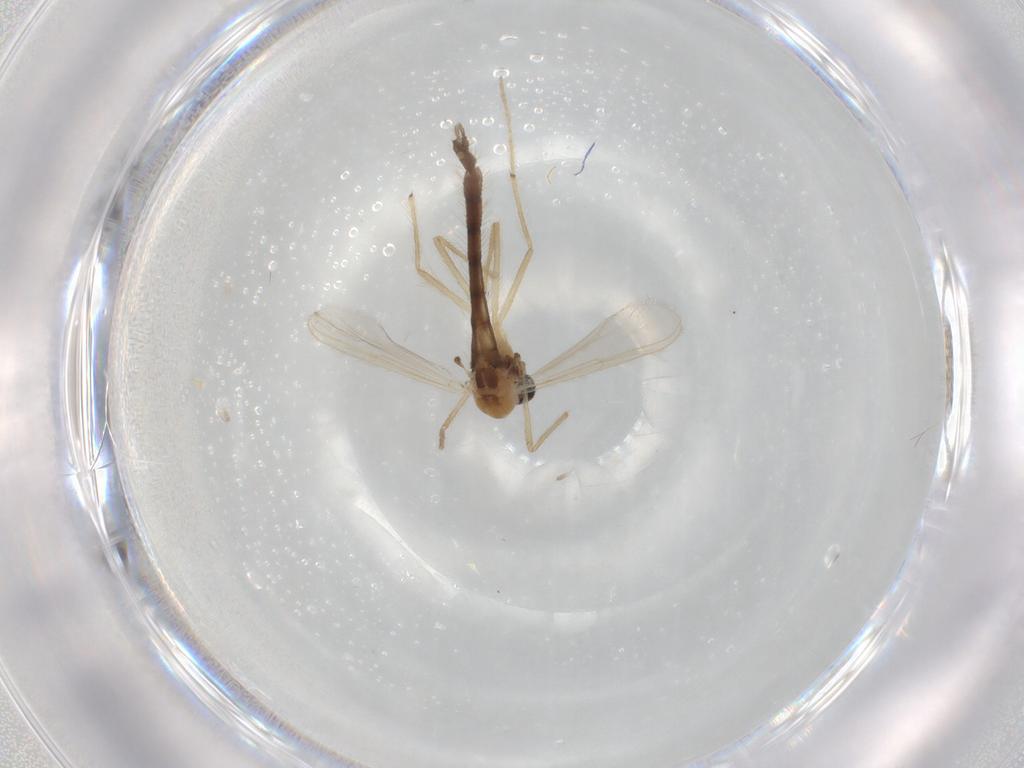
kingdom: Animalia
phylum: Arthropoda
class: Insecta
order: Diptera
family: Chironomidae
